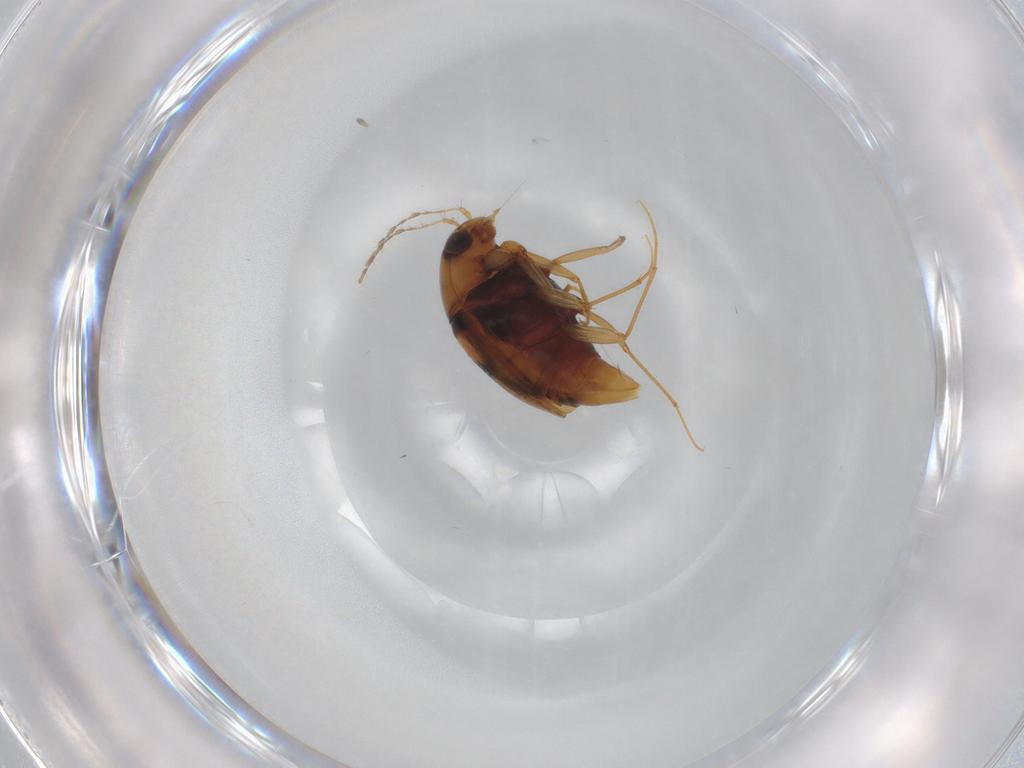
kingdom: Animalia
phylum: Arthropoda
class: Insecta
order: Coleoptera
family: Staphylinidae
